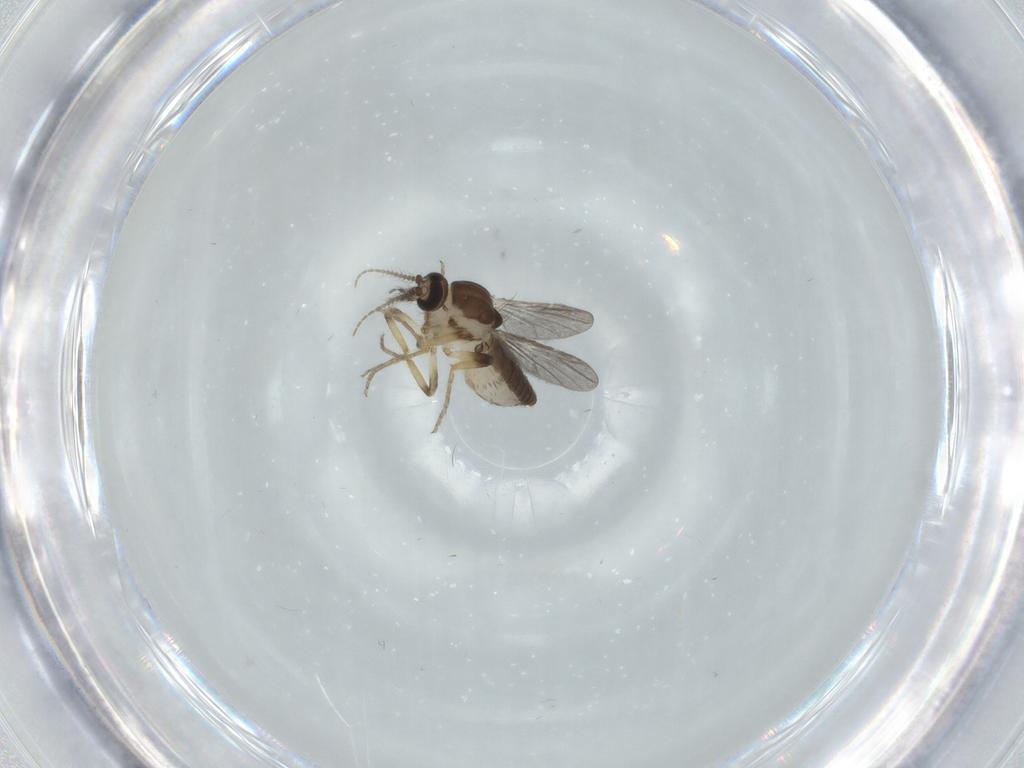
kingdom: Animalia
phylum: Arthropoda
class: Insecta
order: Diptera
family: Ceratopogonidae
